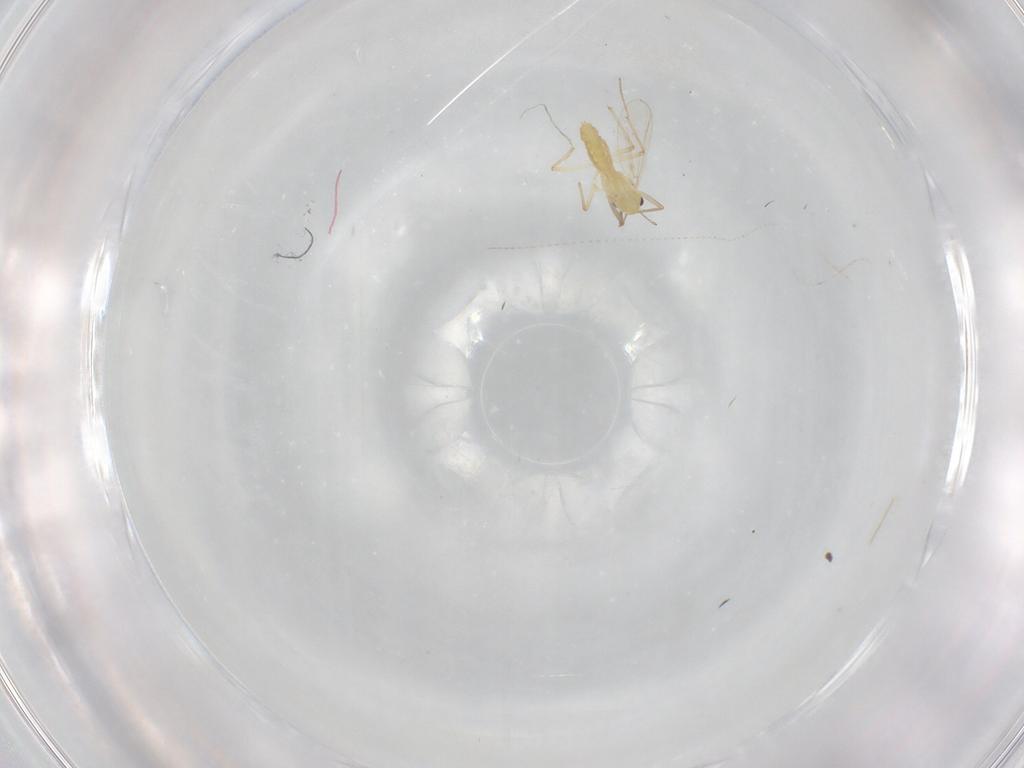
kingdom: Animalia
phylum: Arthropoda
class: Insecta
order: Diptera
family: Chironomidae
